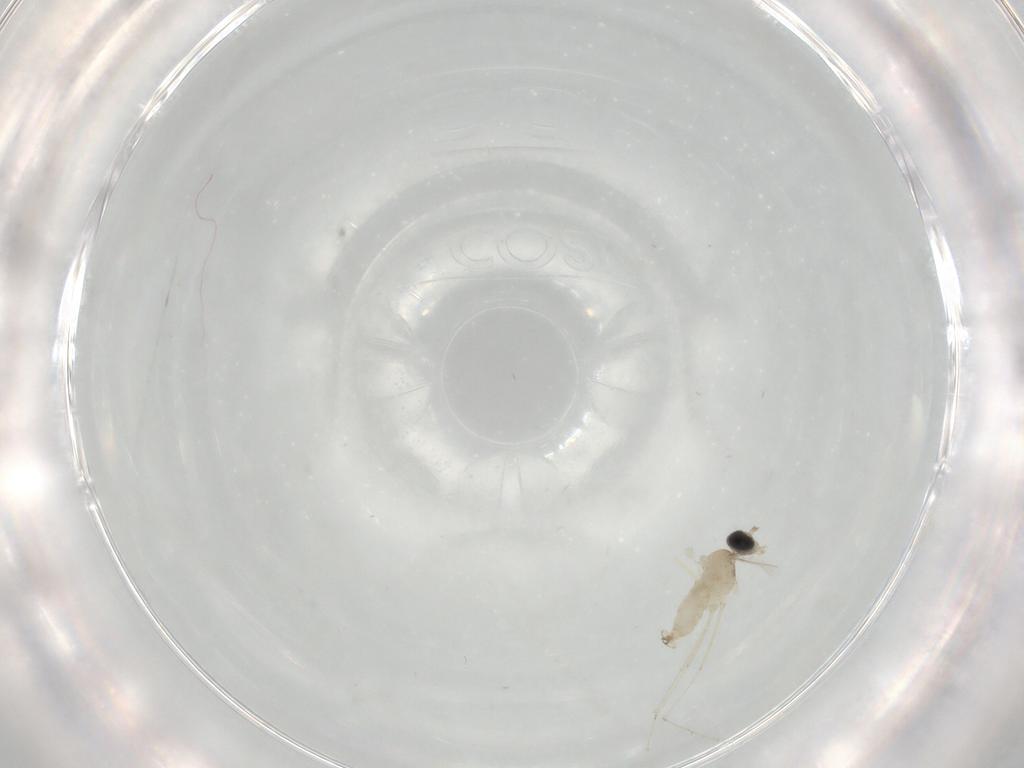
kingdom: Animalia
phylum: Arthropoda
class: Insecta
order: Diptera
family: Cecidomyiidae
